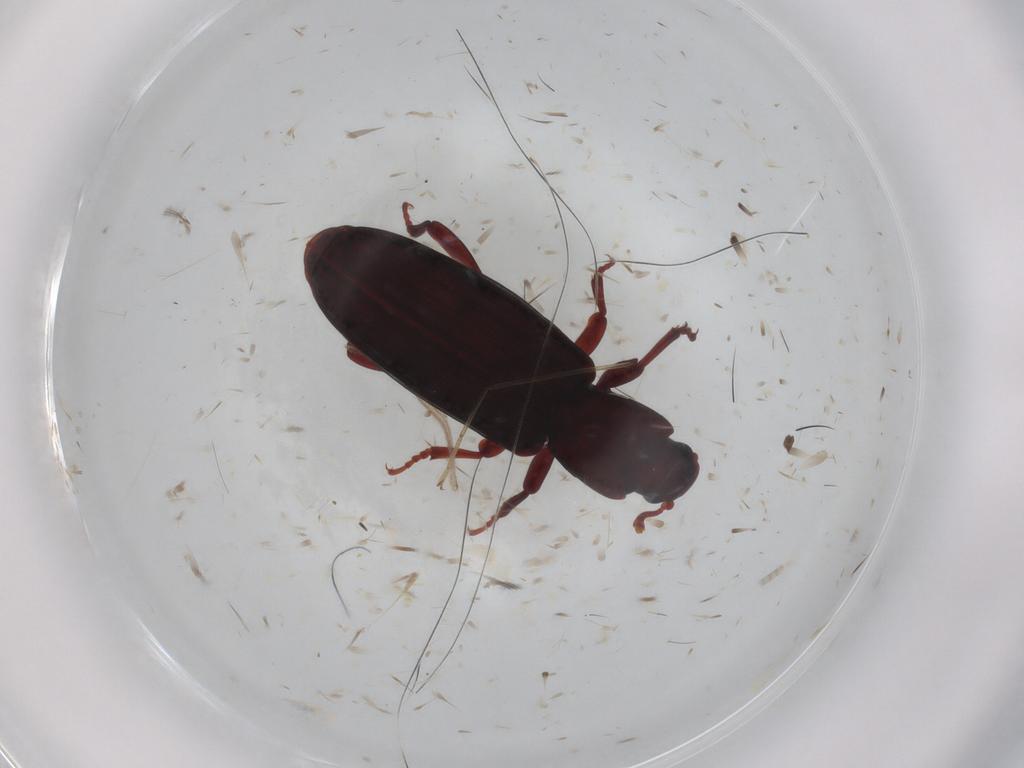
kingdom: Animalia
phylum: Arthropoda
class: Insecta
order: Coleoptera
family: Bothrideridae
